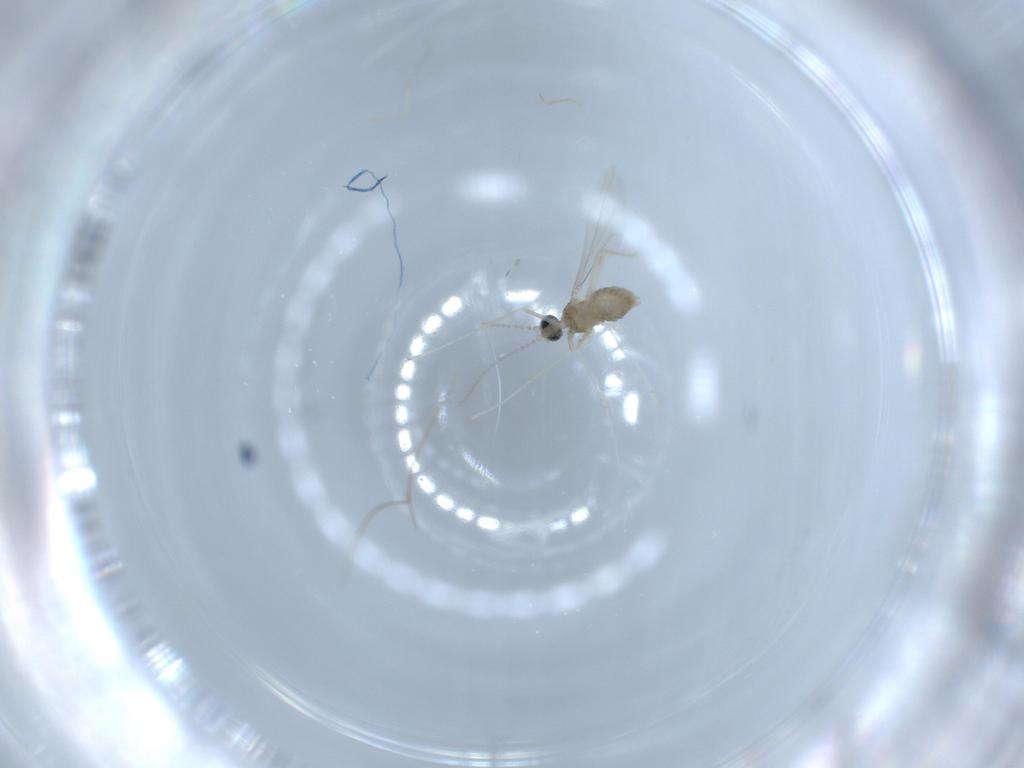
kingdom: Animalia
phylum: Arthropoda
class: Insecta
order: Diptera
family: Cecidomyiidae
